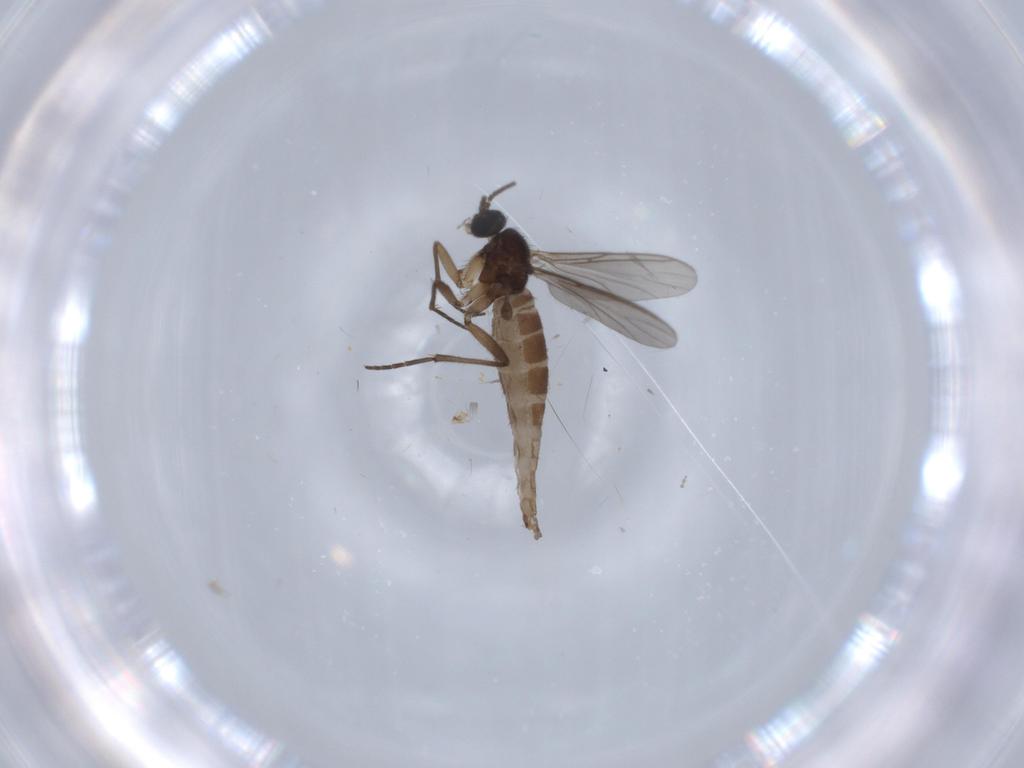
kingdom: Animalia
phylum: Arthropoda
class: Insecta
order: Diptera
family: Sciaridae
